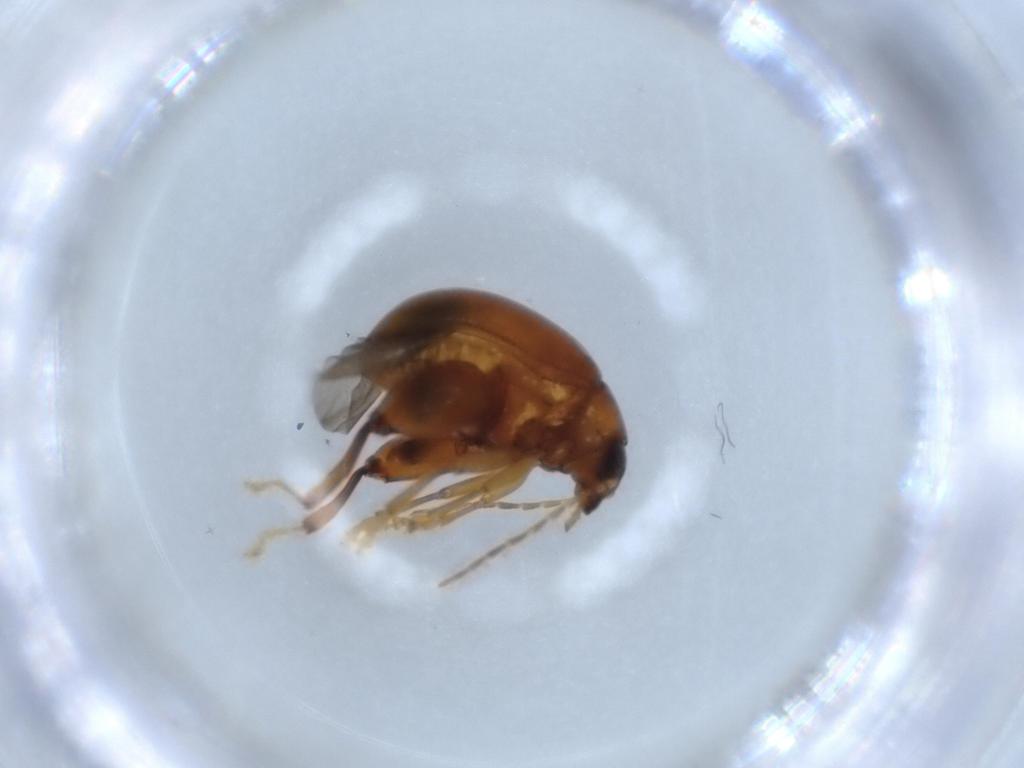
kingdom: Animalia
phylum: Arthropoda
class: Insecta
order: Coleoptera
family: Chrysomelidae
